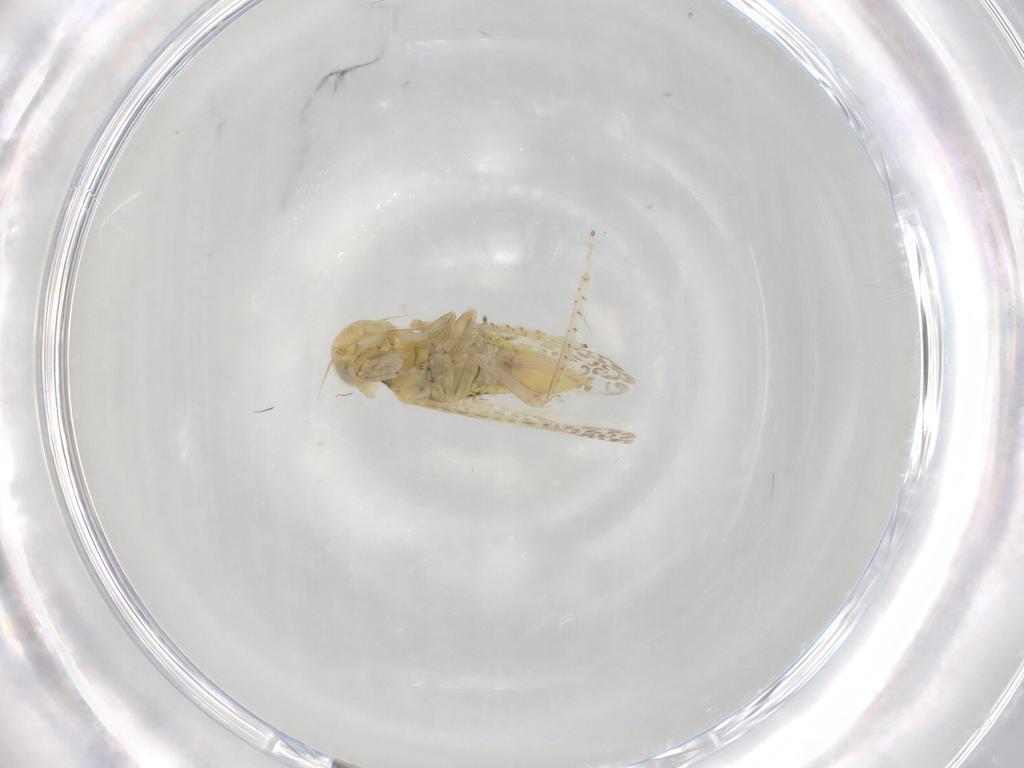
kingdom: Animalia
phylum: Arthropoda
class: Insecta
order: Hemiptera
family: Cicadellidae
